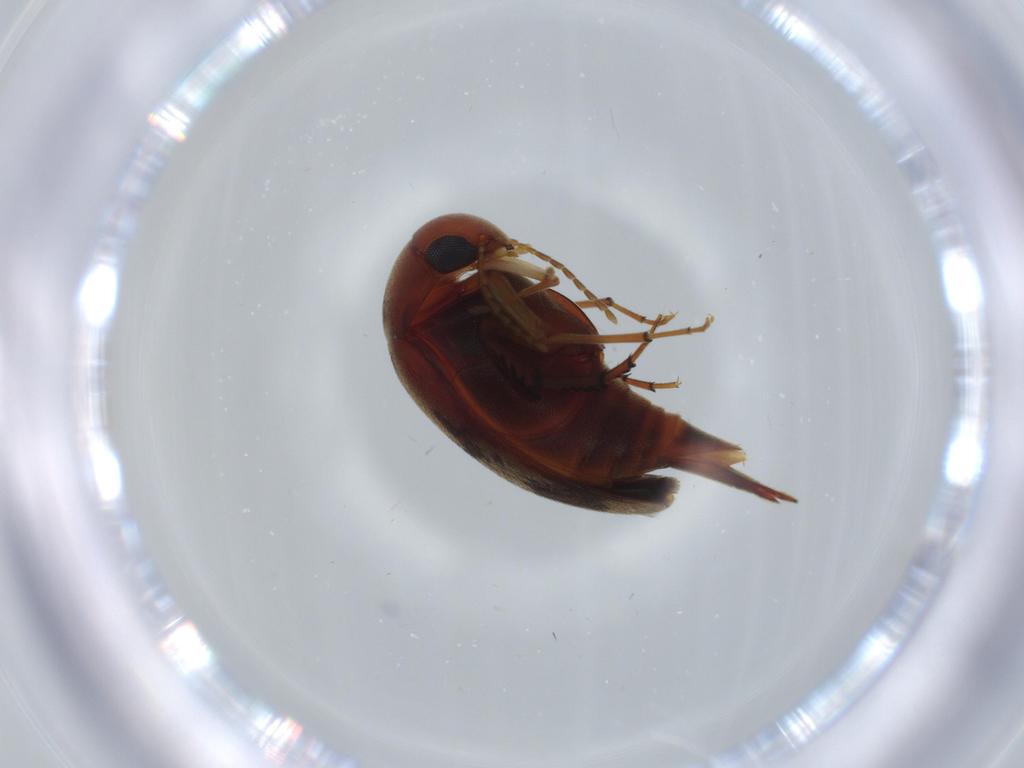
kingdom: Animalia
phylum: Arthropoda
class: Insecta
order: Coleoptera
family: Mordellidae
